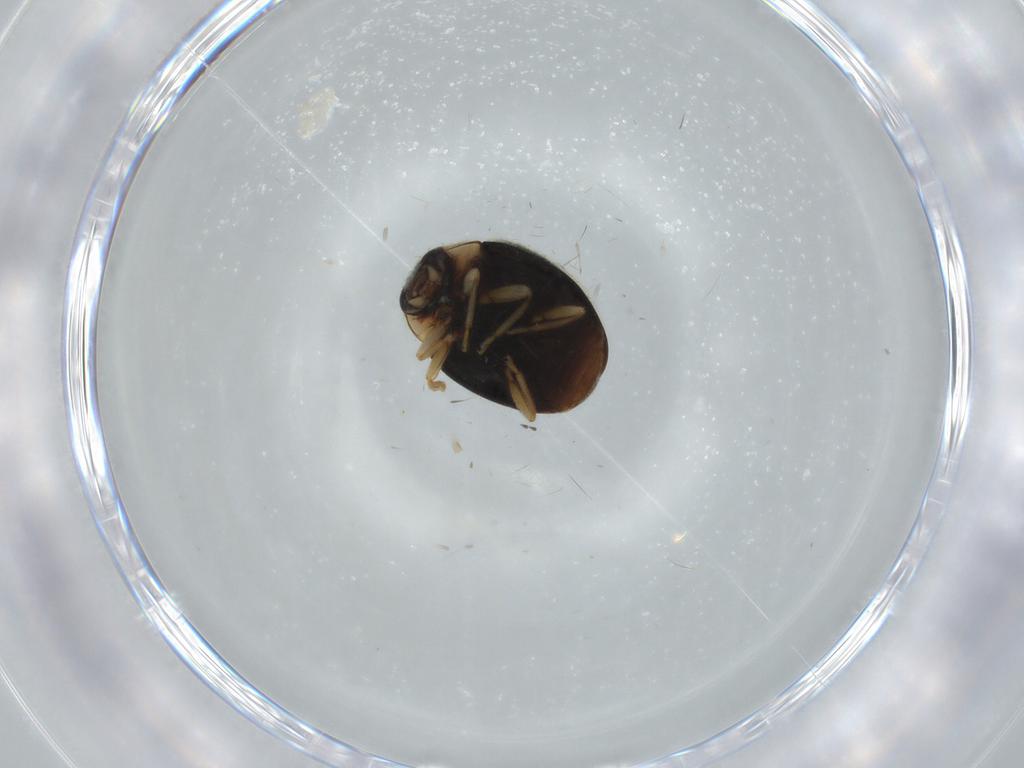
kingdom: Animalia
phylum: Arthropoda
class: Insecta
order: Coleoptera
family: Coccinellidae
